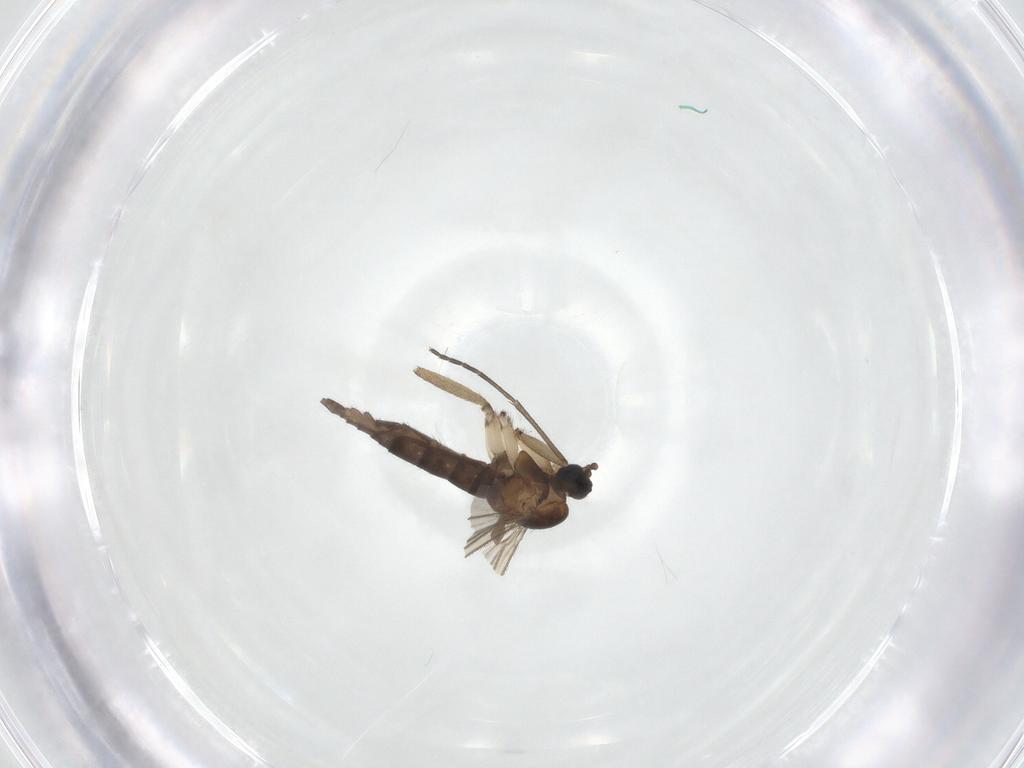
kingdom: Animalia
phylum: Arthropoda
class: Insecta
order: Diptera
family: Sciaridae
